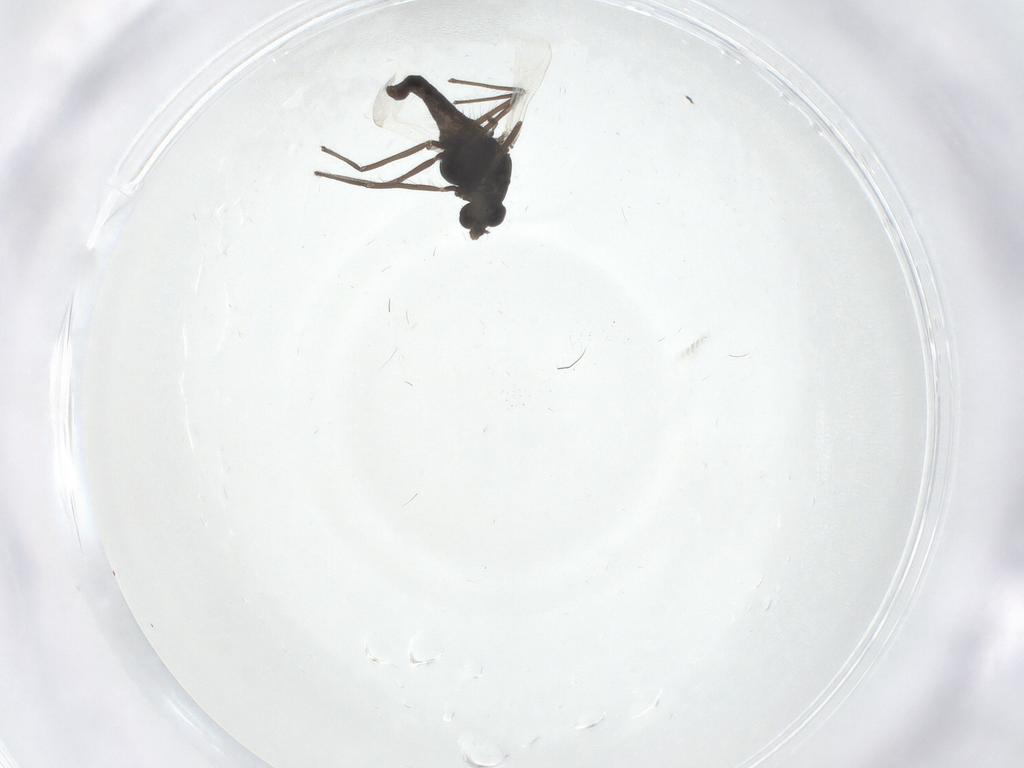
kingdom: Animalia
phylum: Arthropoda
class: Insecta
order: Diptera
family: Chironomidae
